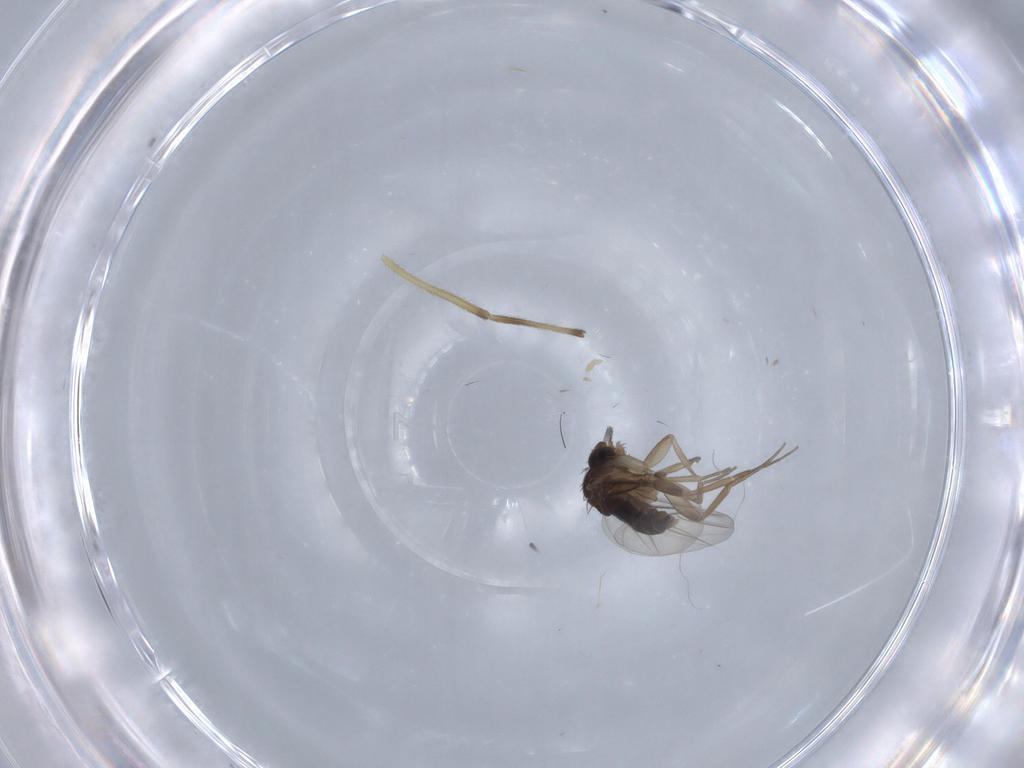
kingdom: Animalia
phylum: Arthropoda
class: Insecta
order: Diptera
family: Phoridae
